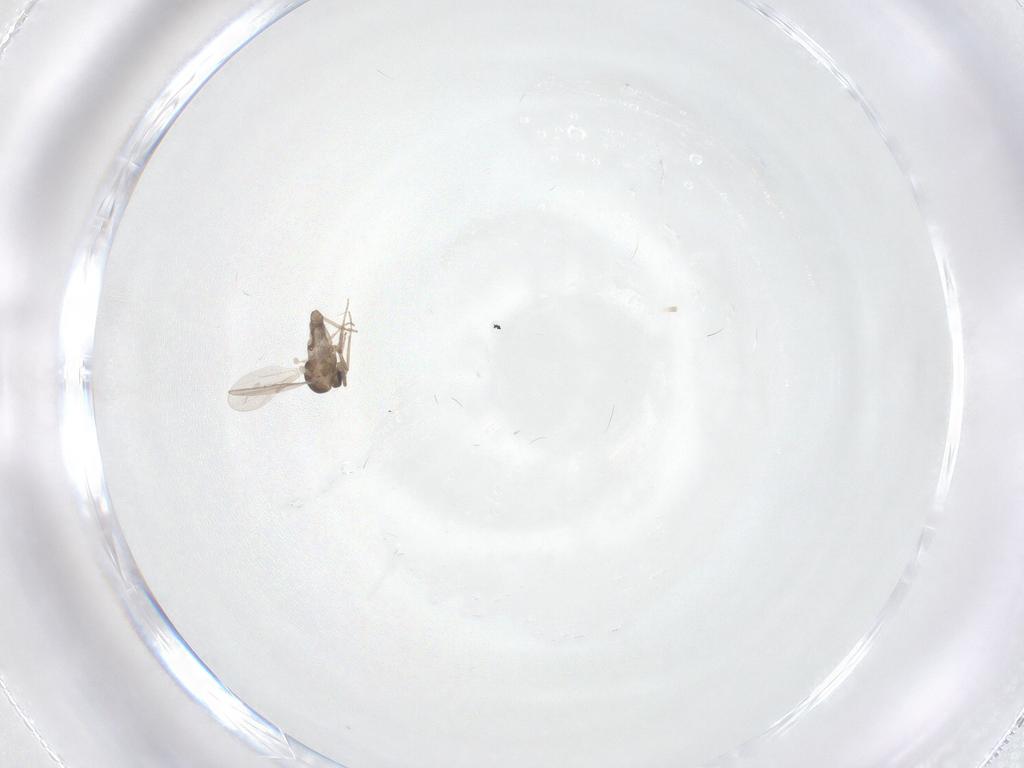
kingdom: Animalia
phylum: Arthropoda
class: Insecta
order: Diptera
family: Ceratopogonidae
